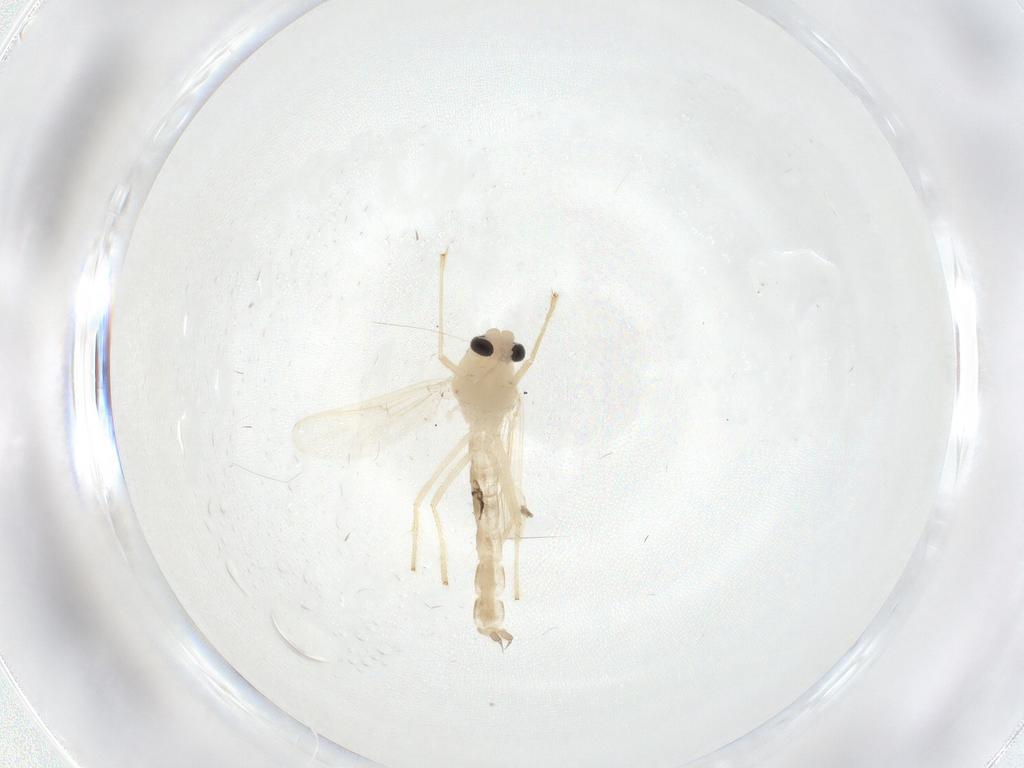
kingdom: Animalia
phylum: Arthropoda
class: Insecta
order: Diptera
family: Chironomidae
